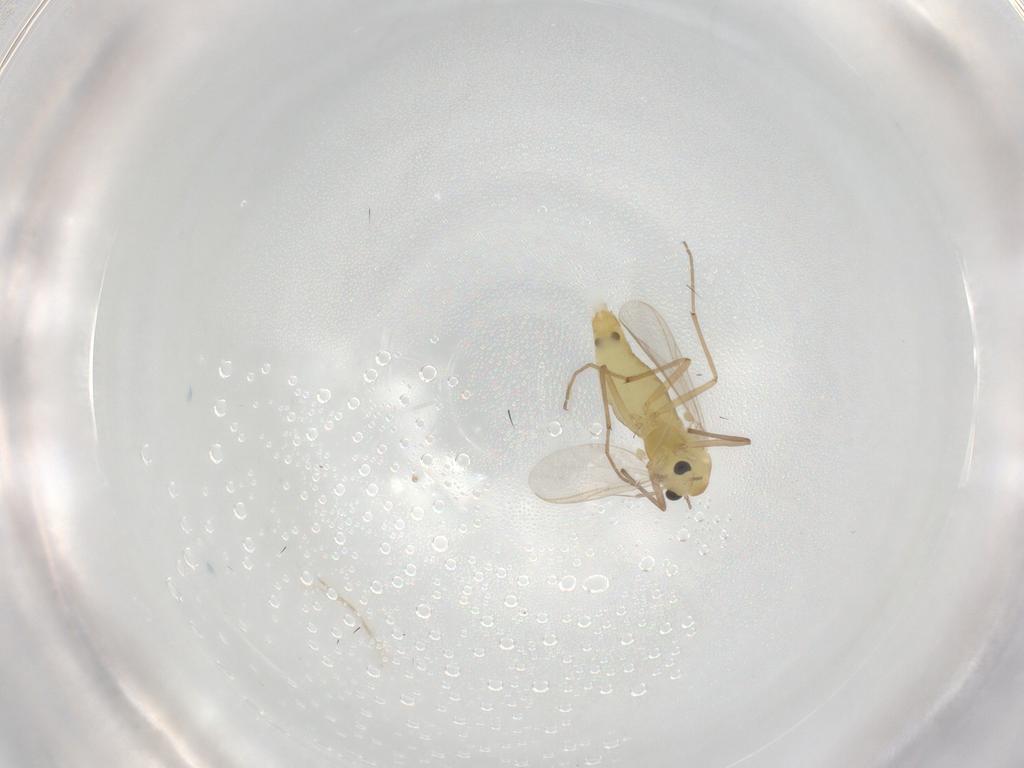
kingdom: Animalia
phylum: Arthropoda
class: Insecta
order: Diptera
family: Chironomidae
